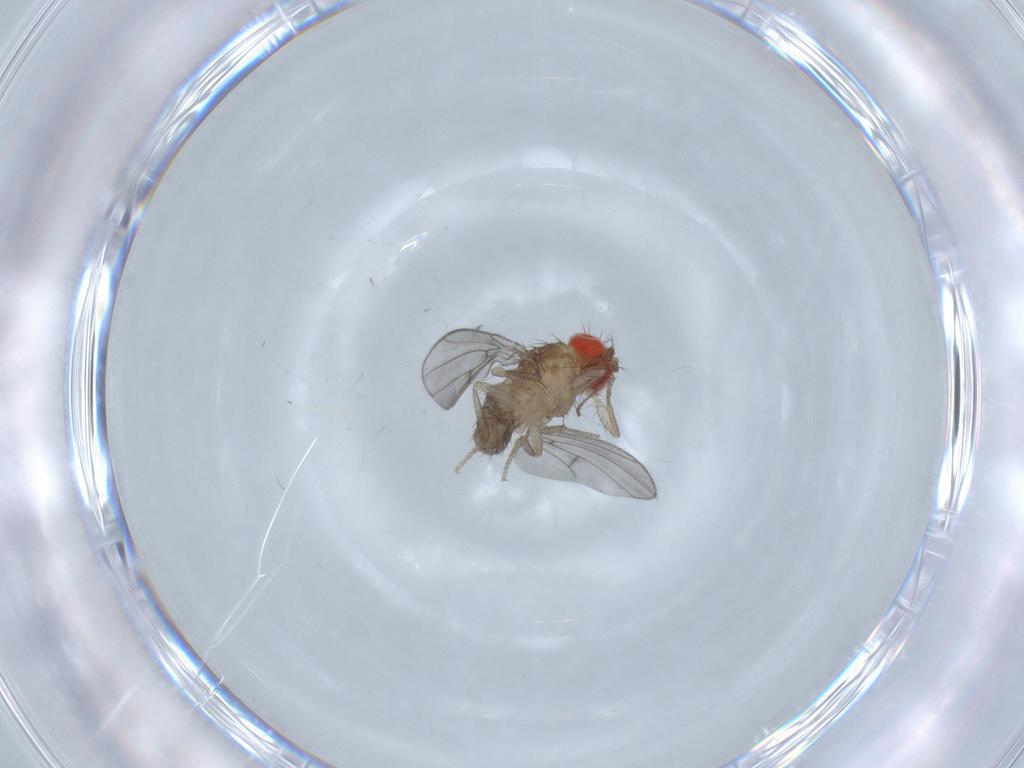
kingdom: Animalia
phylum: Arthropoda
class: Insecta
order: Diptera
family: Drosophilidae
